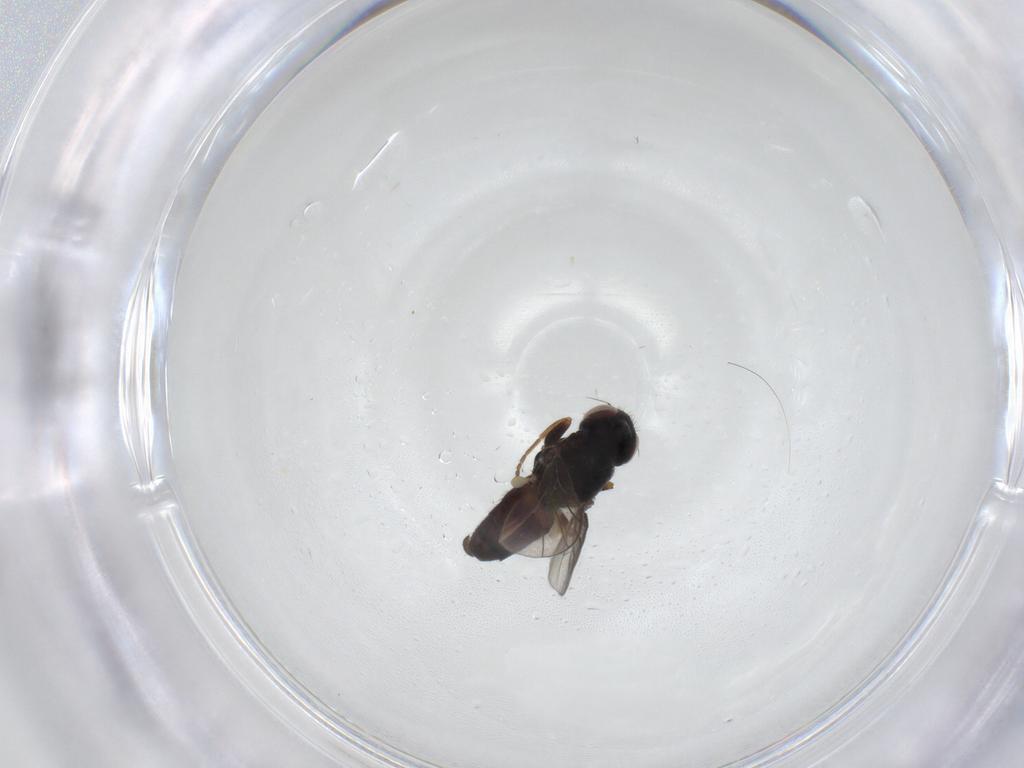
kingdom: Animalia
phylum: Arthropoda
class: Insecta
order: Diptera
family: Chloropidae
